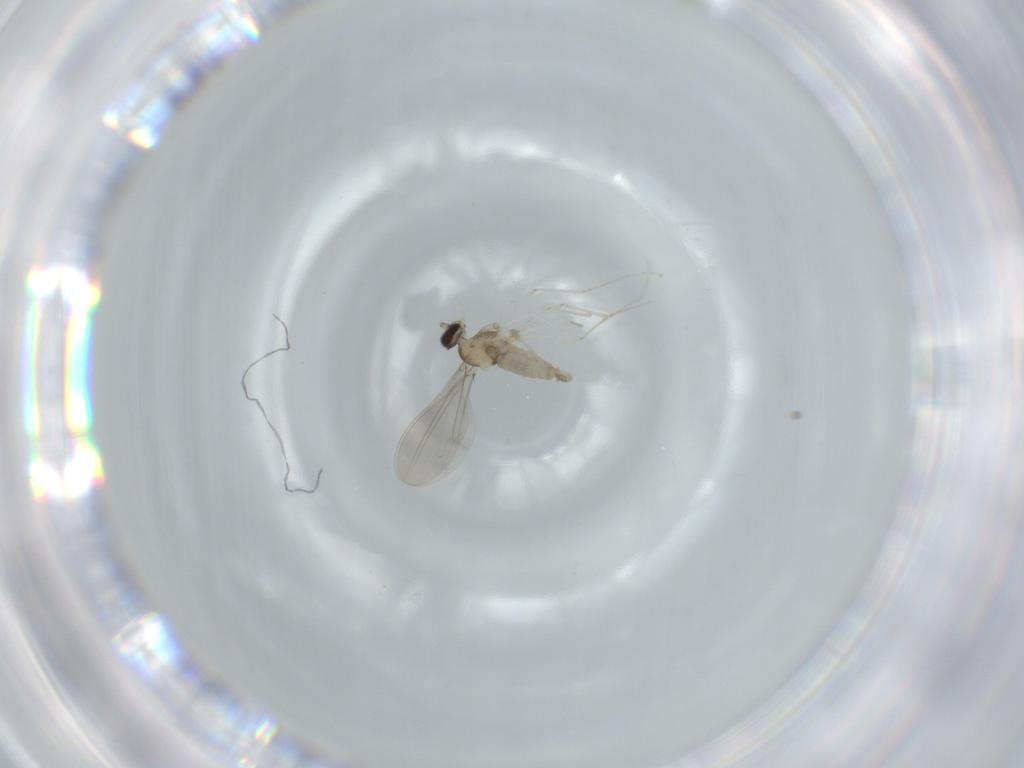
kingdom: Animalia
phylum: Arthropoda
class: Insecta
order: Diptera
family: Cecidomyiidae
